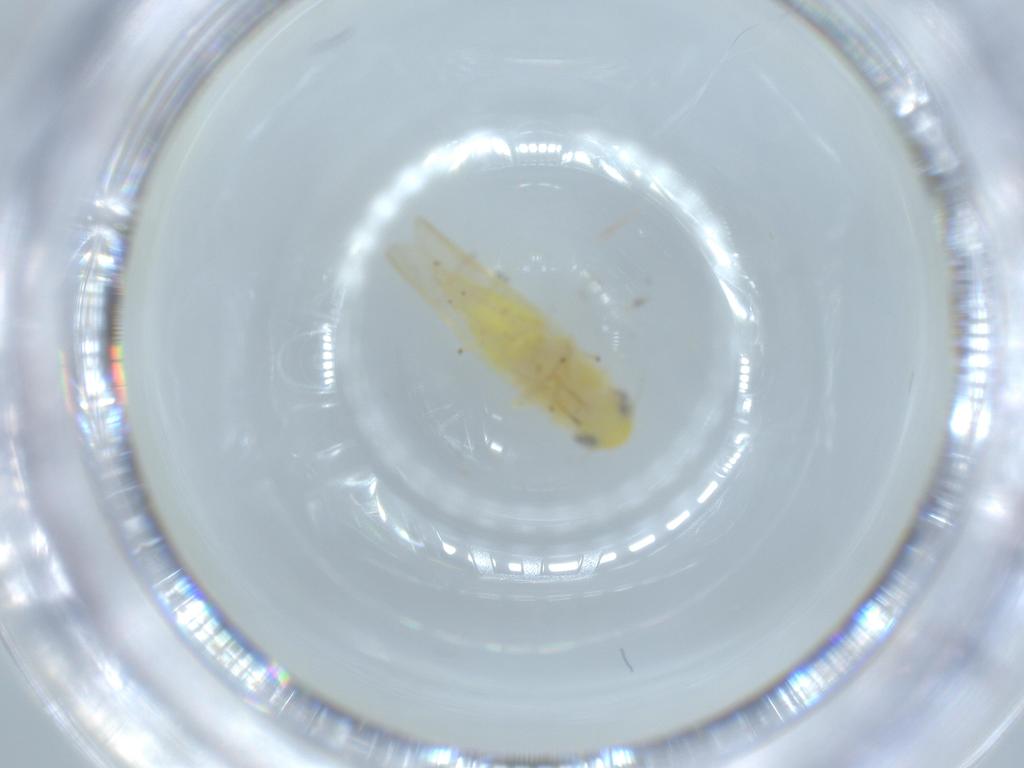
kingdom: Animalia
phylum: Arthropoda
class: Insecta
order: Hemiptera
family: Cicadellidae
